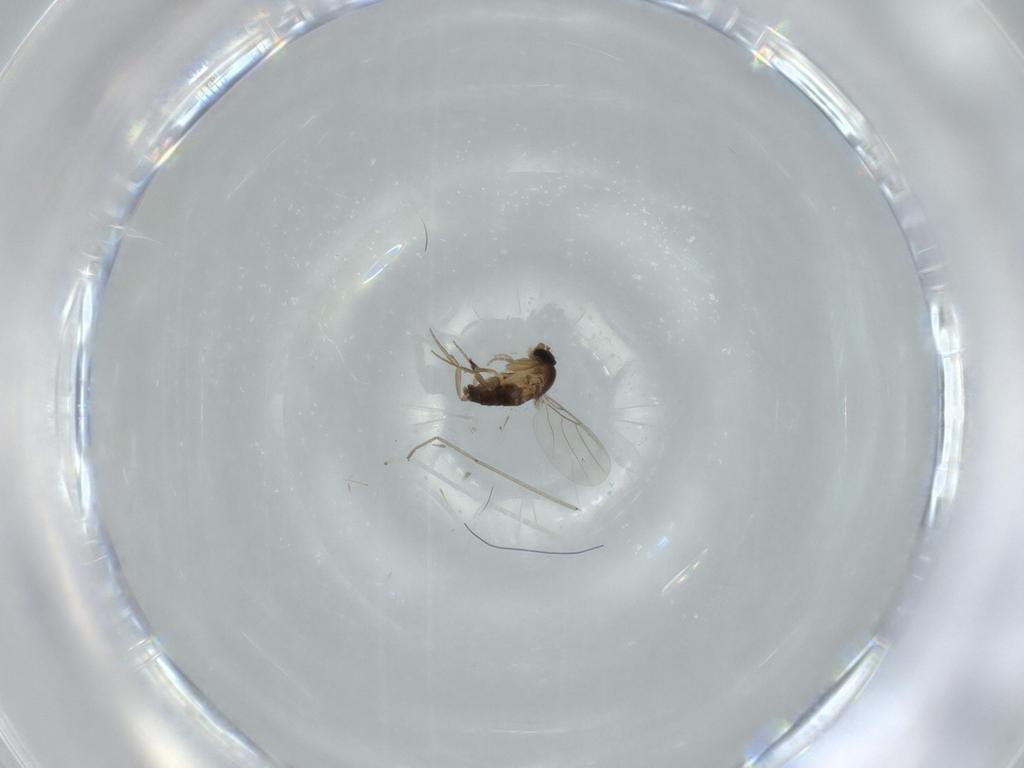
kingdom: Animalia
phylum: Arthropoda
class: Insecta
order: Diptera
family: Phoridae
